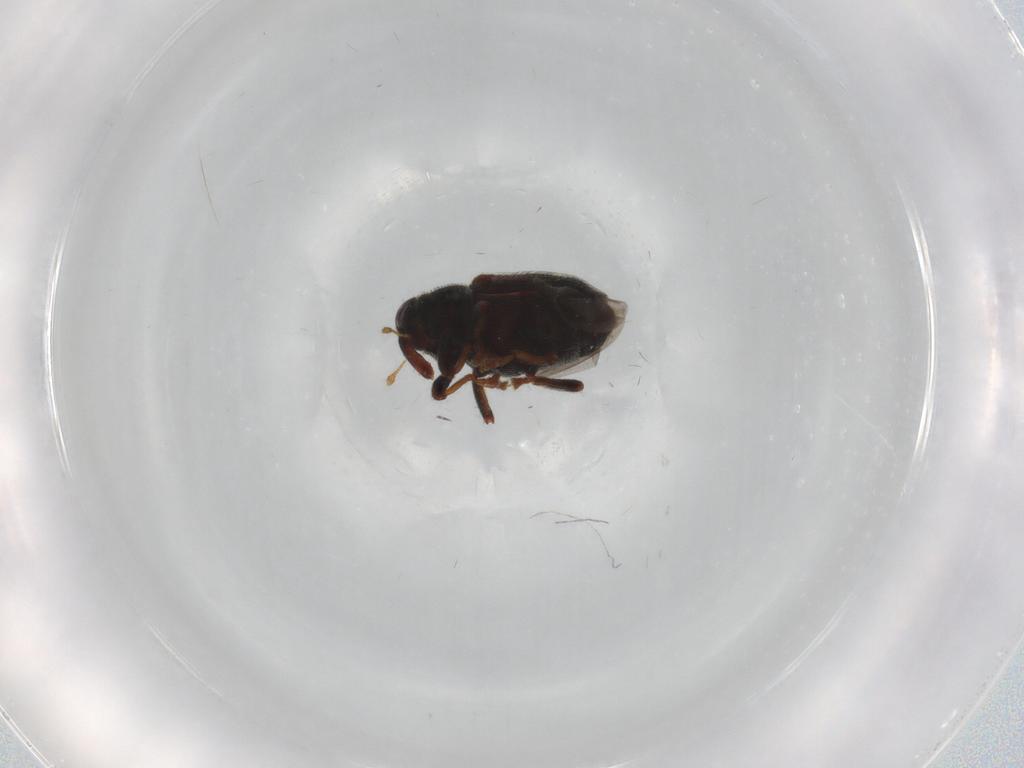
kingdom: Animalia
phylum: Arthropoda
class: Insecta
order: Coleoptera
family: Curculionidae
